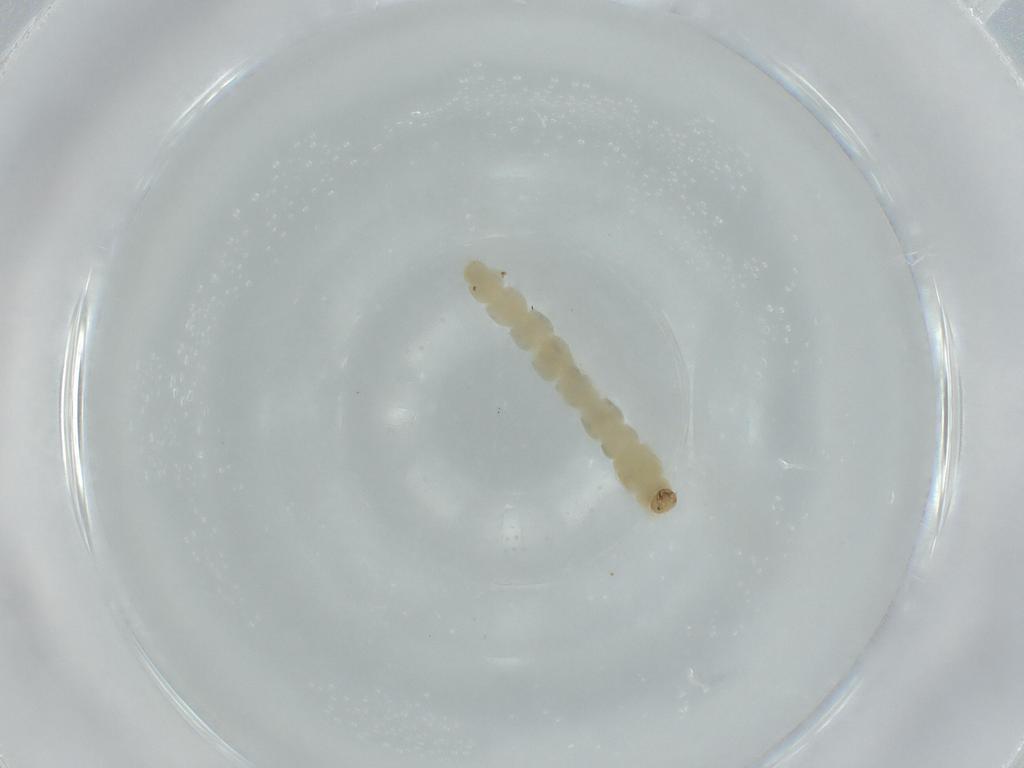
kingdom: Animalia
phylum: Arthropoda
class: Insecta
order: Diptera
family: Chironomidae
